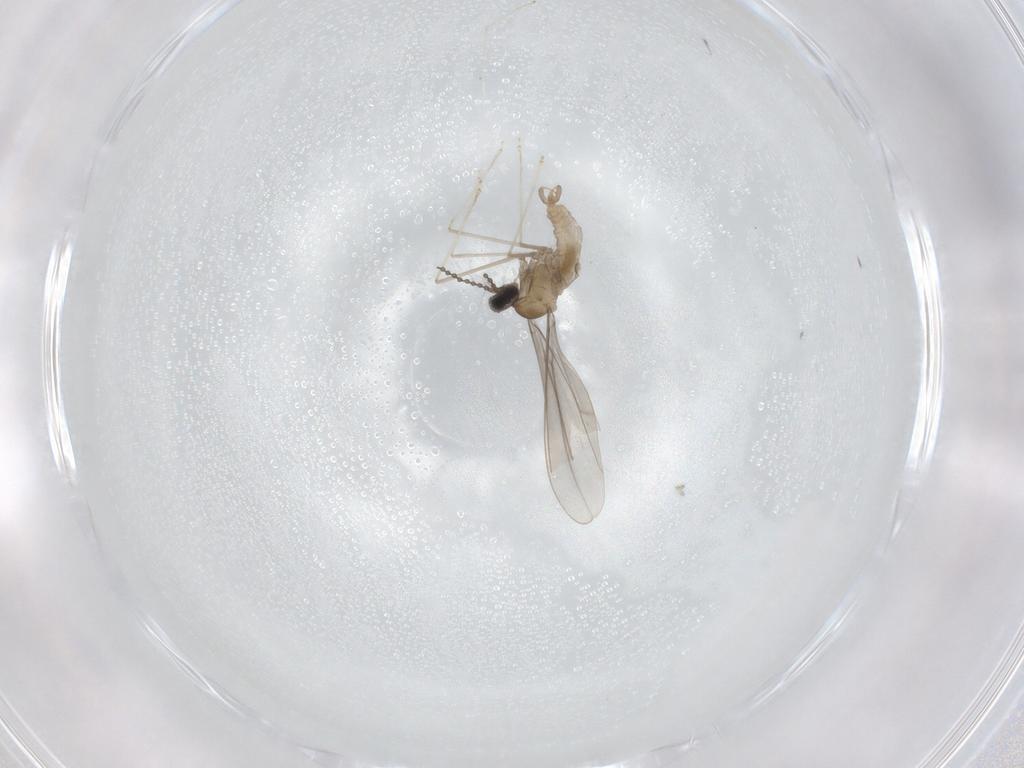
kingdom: Animalia
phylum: Arthropoda
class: Insecta
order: Diptera
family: Cecidomyiidae
